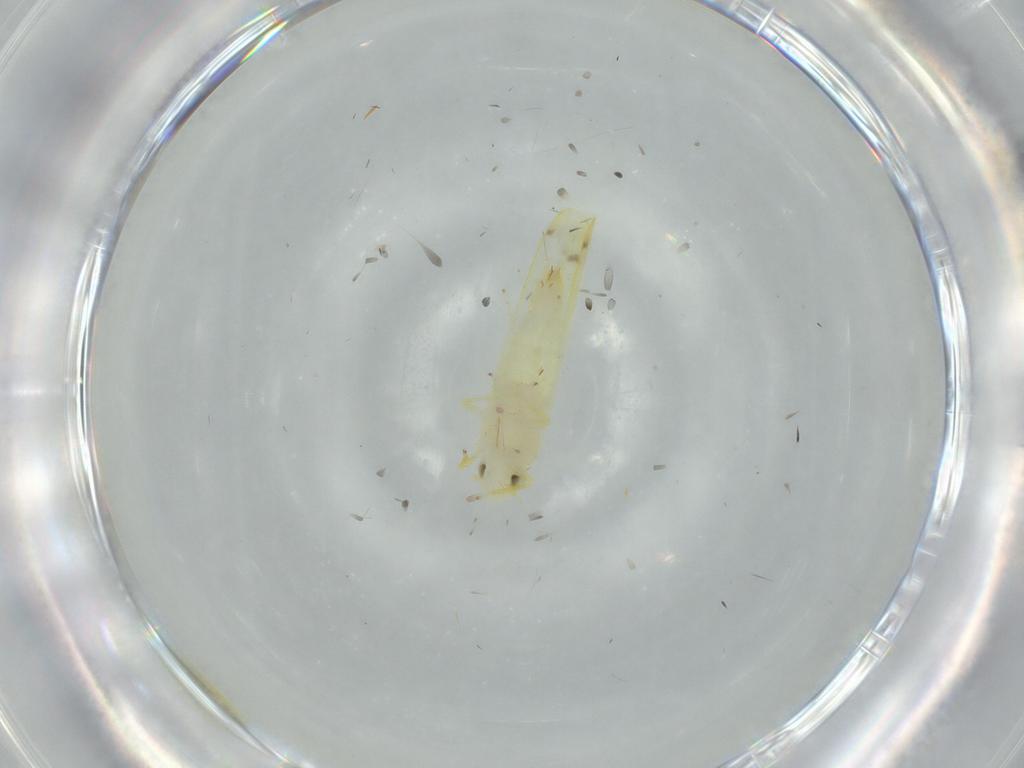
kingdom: Animalia
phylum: Arthropoda
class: Insecta
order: Hemiptera
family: Cicadellidae
